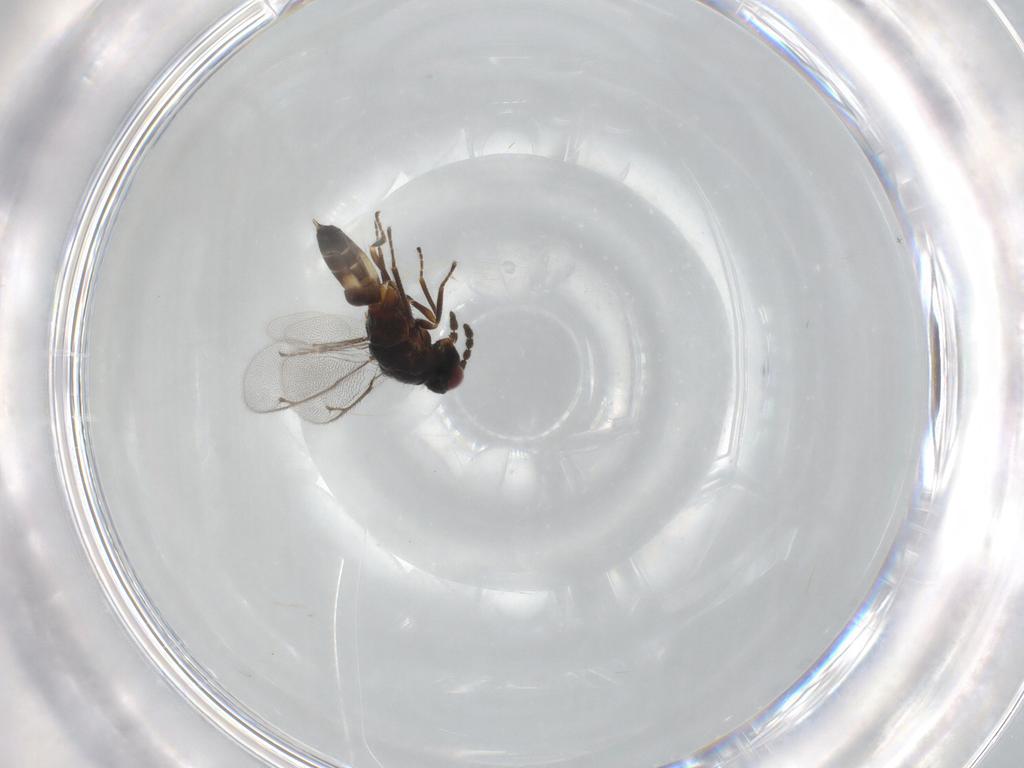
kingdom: Animalia
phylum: Arthropoda
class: Insecta
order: Hymenoptera
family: Eulophidae
